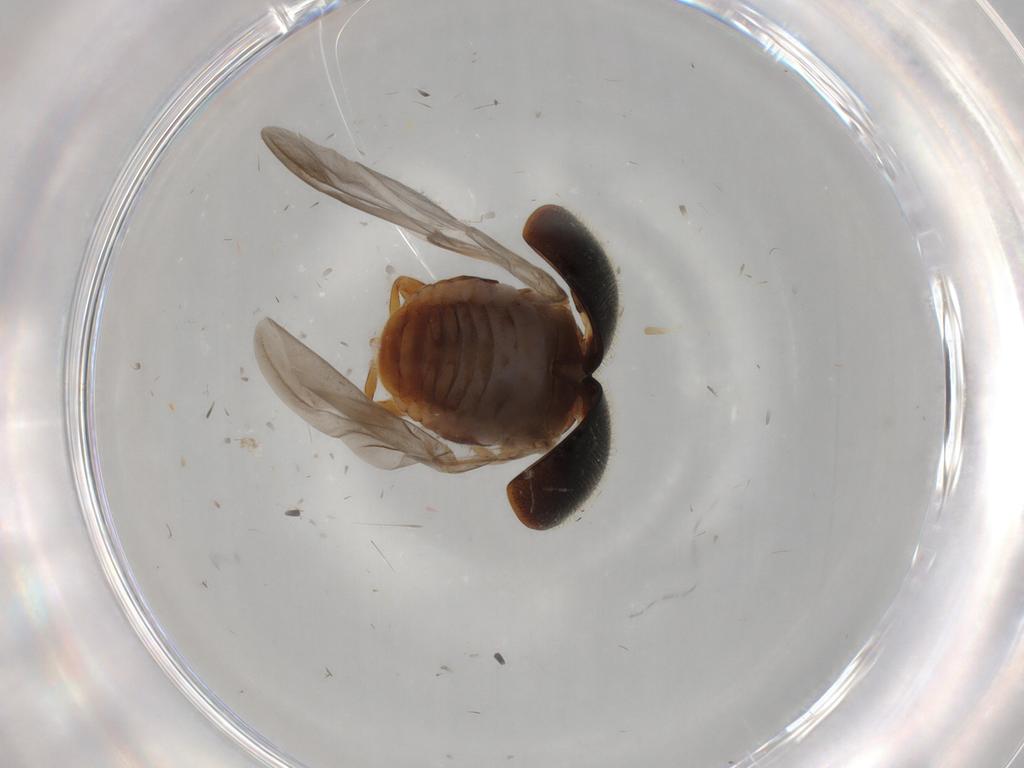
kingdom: Animalia
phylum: Arthropoda
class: Insecta
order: Coleoptera
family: Coccinellidae
